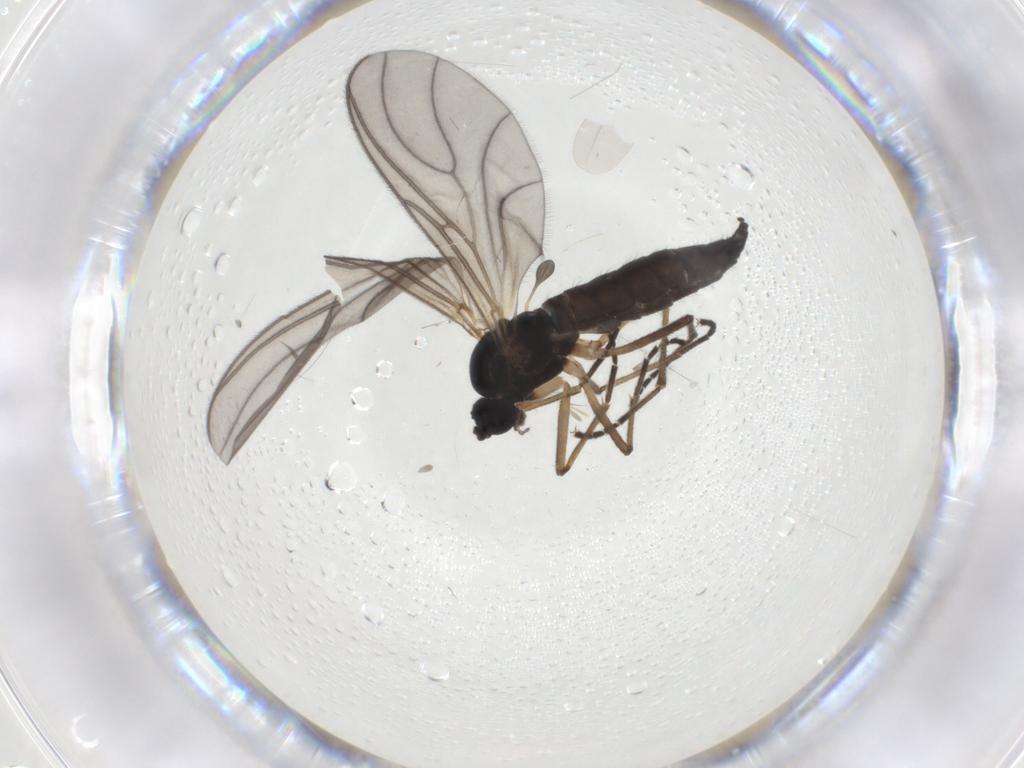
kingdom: Animalia
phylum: Arthropoda
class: Insecta
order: Diptera
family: Sciaridae
